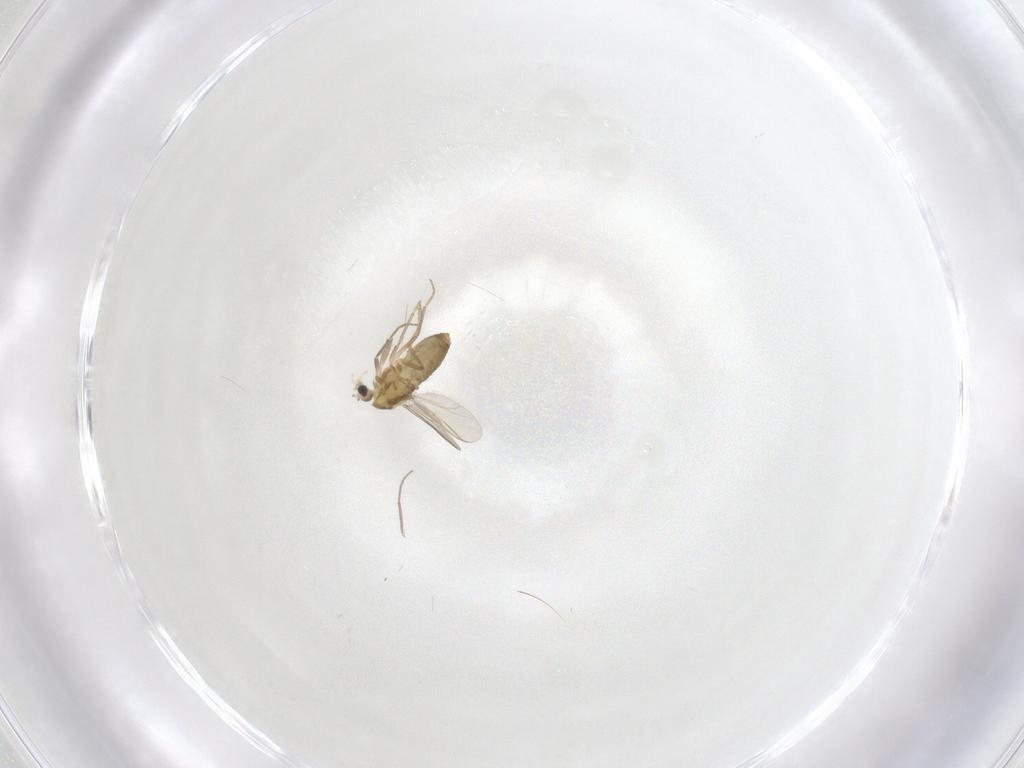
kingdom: Animalia
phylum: Arthropoda
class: Insecta
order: Diptera
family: Chironomidae
